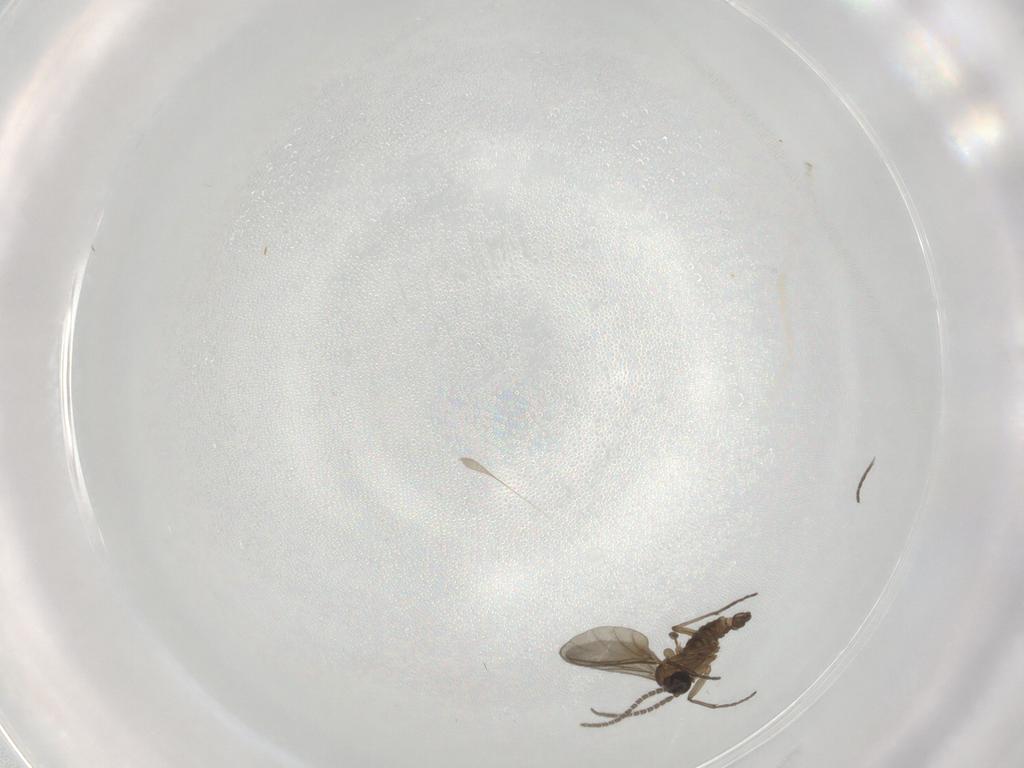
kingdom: Animalia
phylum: Arthropoda
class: Insecta
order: Diptera
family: Sciaridae
